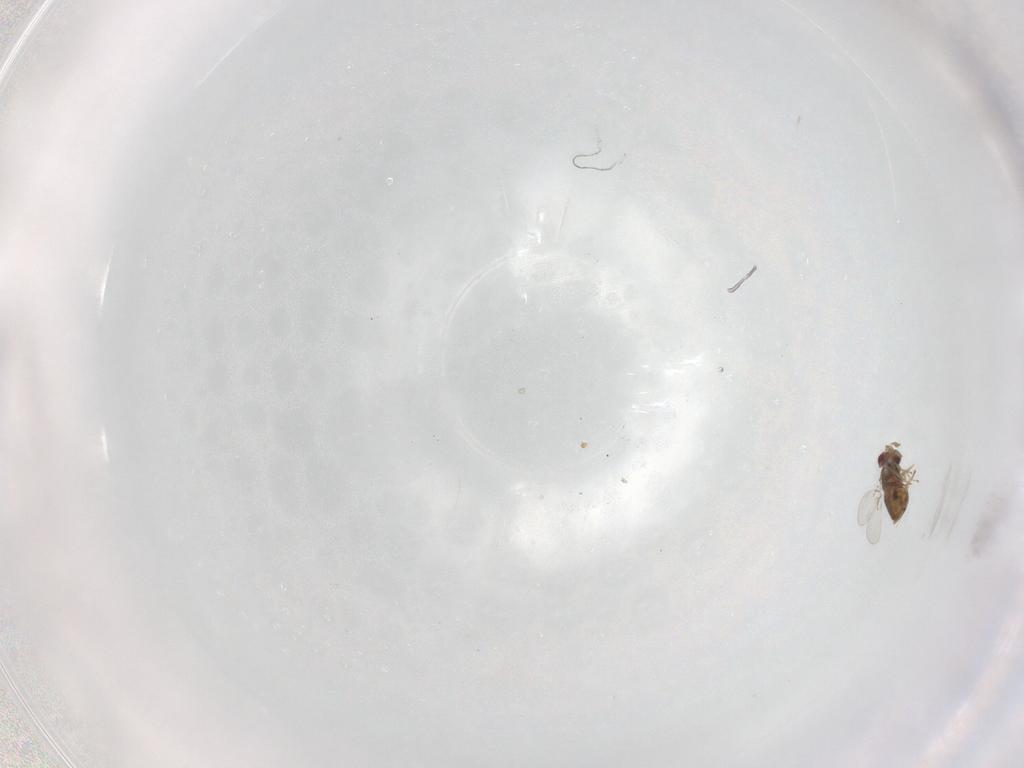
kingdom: Animalia
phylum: Arthropoda
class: Insecta
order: Hymenoptera
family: Trichogrammatidae
